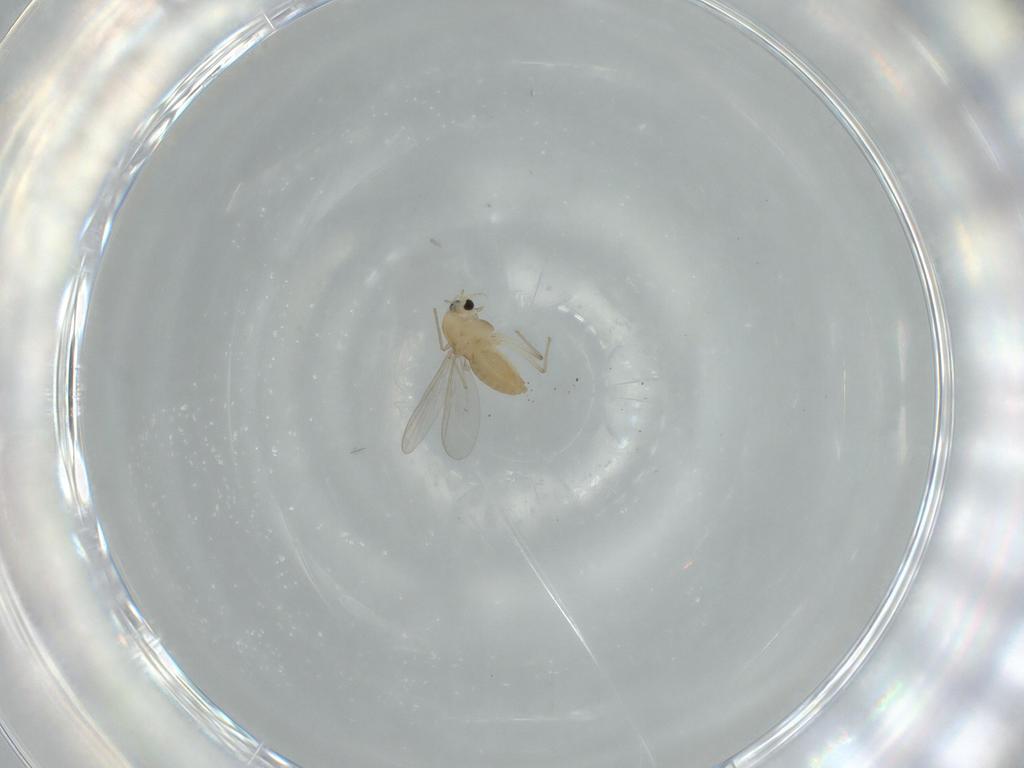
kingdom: Animalia
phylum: Arthropoda
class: Insecta
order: Diptera
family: Chironomidae
